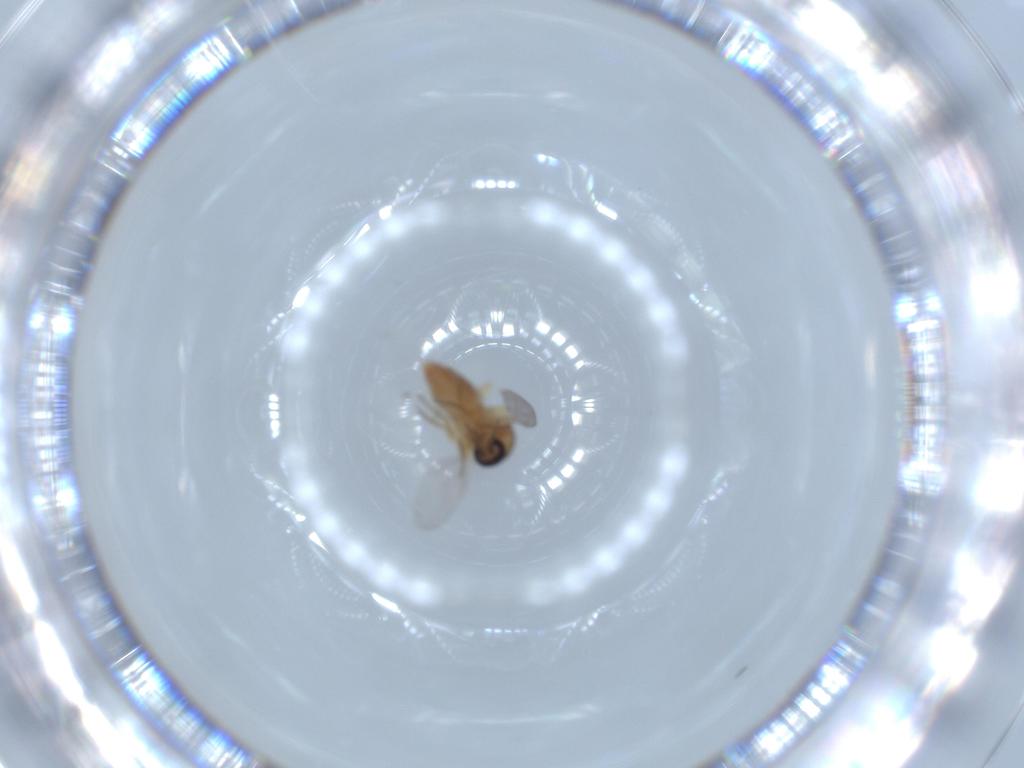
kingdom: Animalia
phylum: Arthropoda
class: Insecta
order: Diptera
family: Ceratopogonidae
